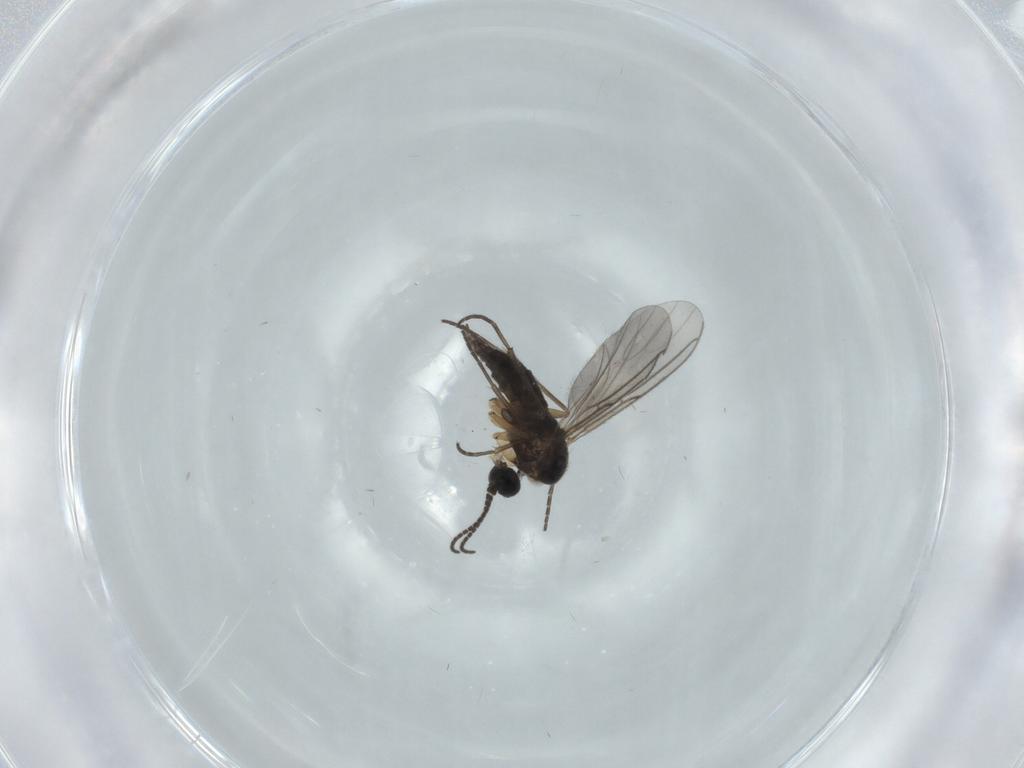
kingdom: Animalia
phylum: Arthropoda
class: Insecta
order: Diptera
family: Sciaridae
